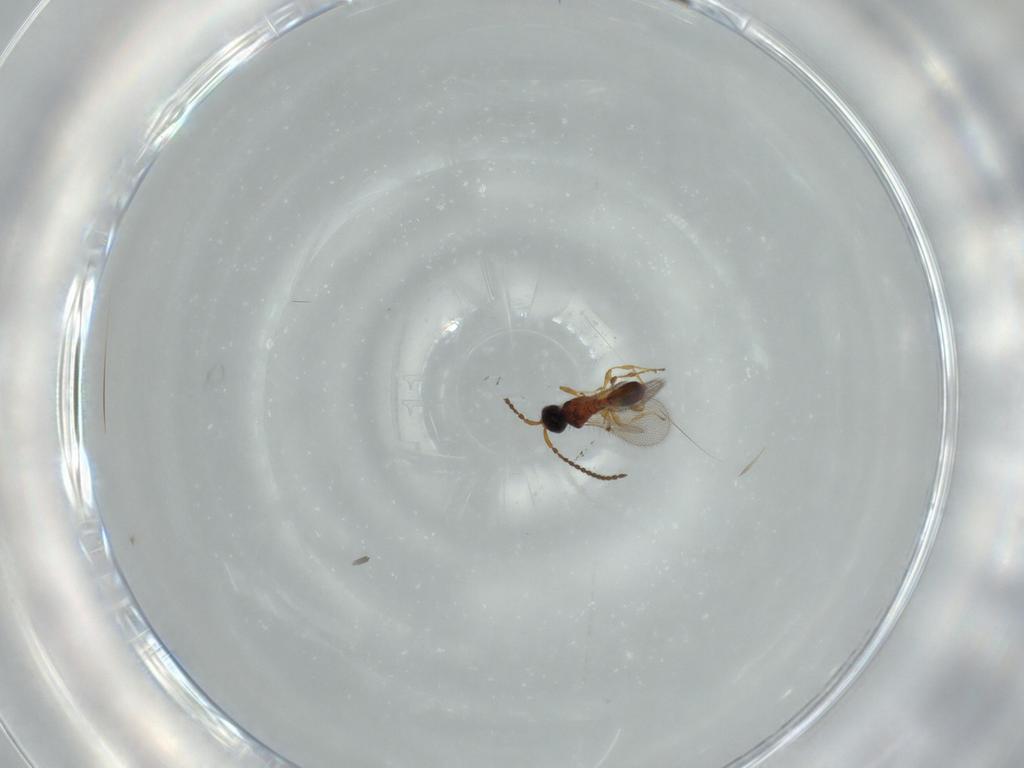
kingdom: Animalia
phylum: Arthropoda
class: Insecta
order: Hymenoptera
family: Diapriidae
